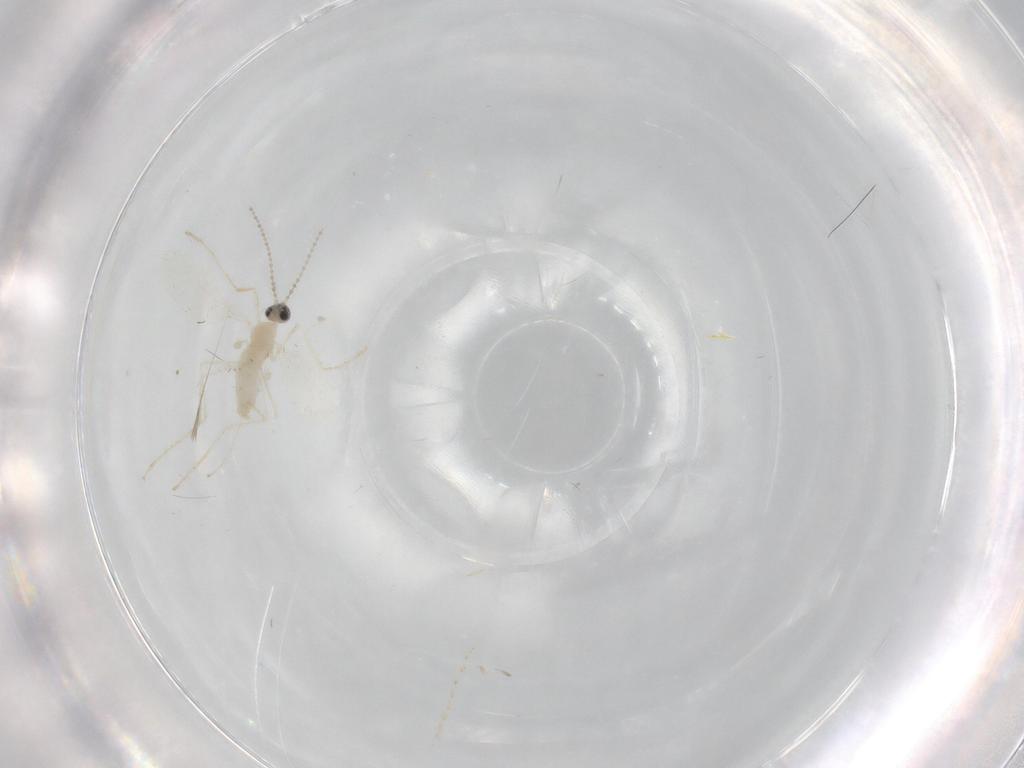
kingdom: Animalia
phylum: Arthropoda
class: Insecta
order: Diptera
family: Cecidomyiidae
